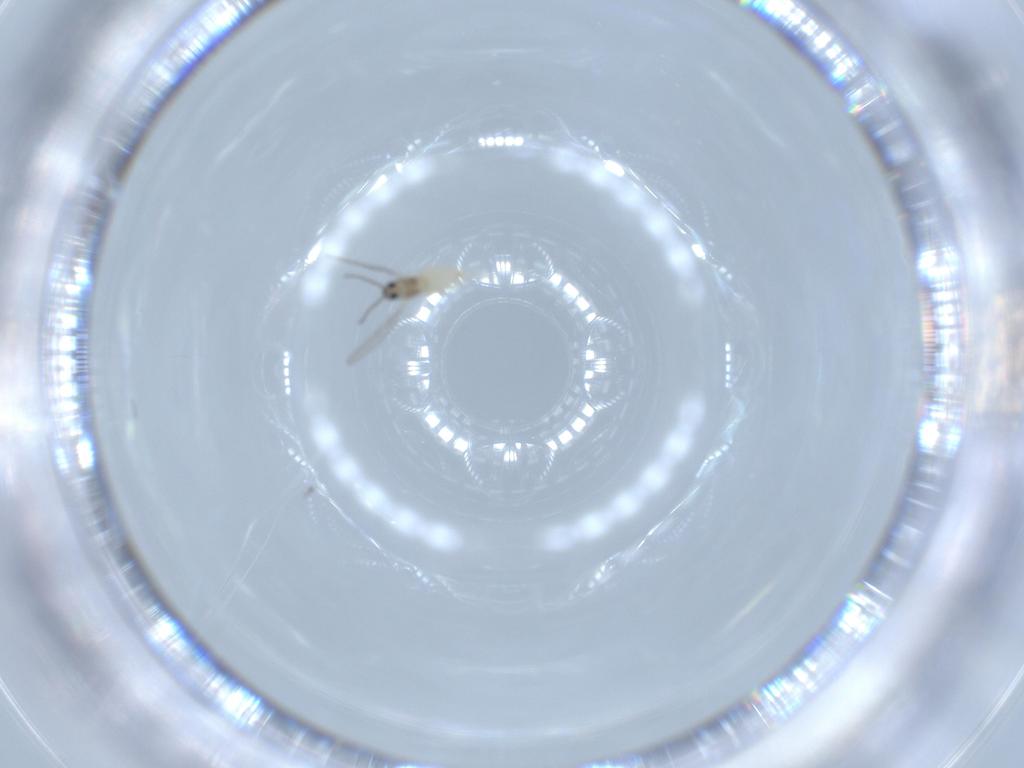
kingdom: Animalia
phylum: Arthropoda
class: Insecta
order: Diptera
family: Cecidomyiidae
